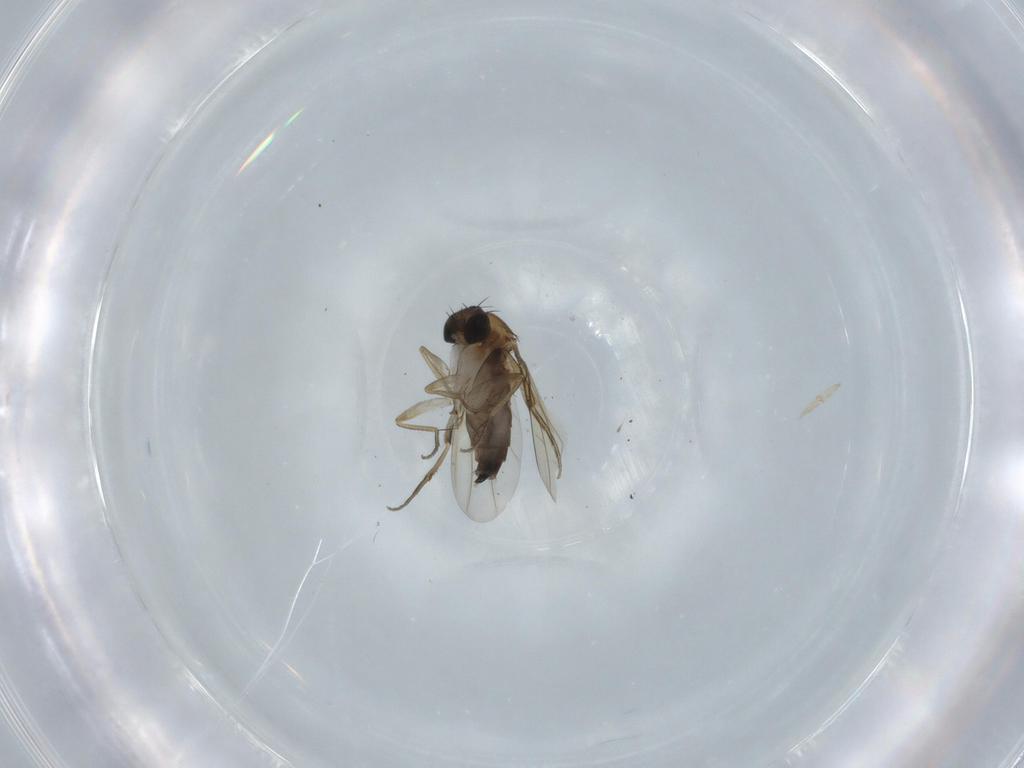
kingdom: Animalia
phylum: Arthropoda
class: Insecta
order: Diptera
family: Phoridae
